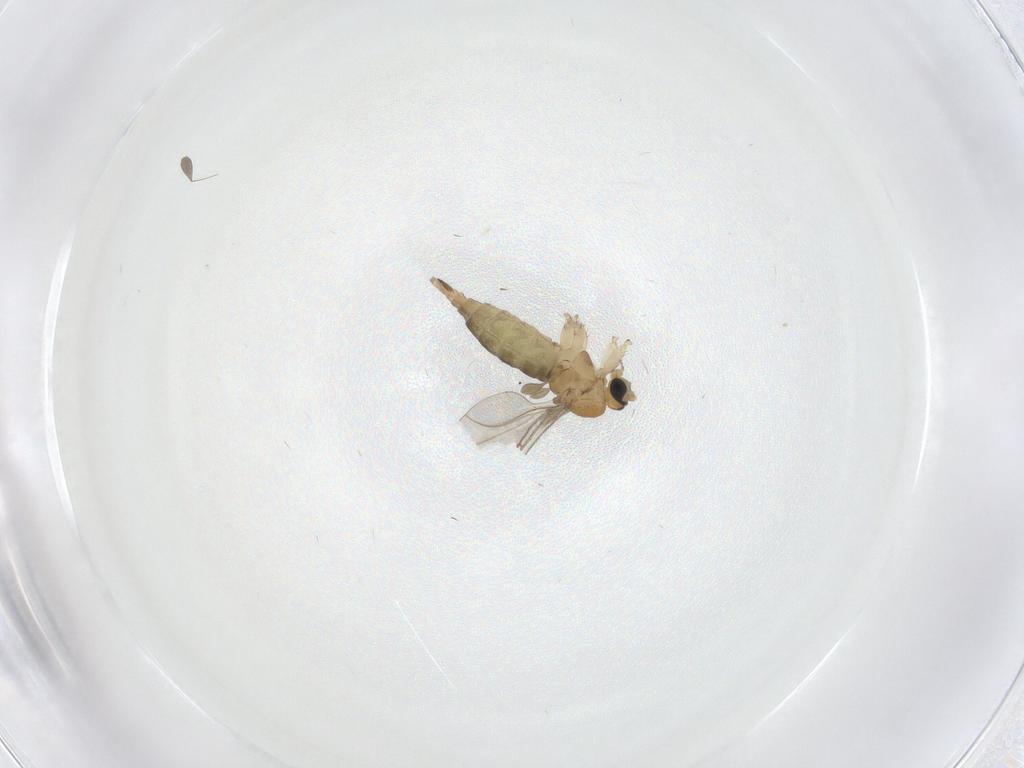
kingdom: Animalia
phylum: Arthropoda
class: Insecta
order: Diptera
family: Sciaridae
